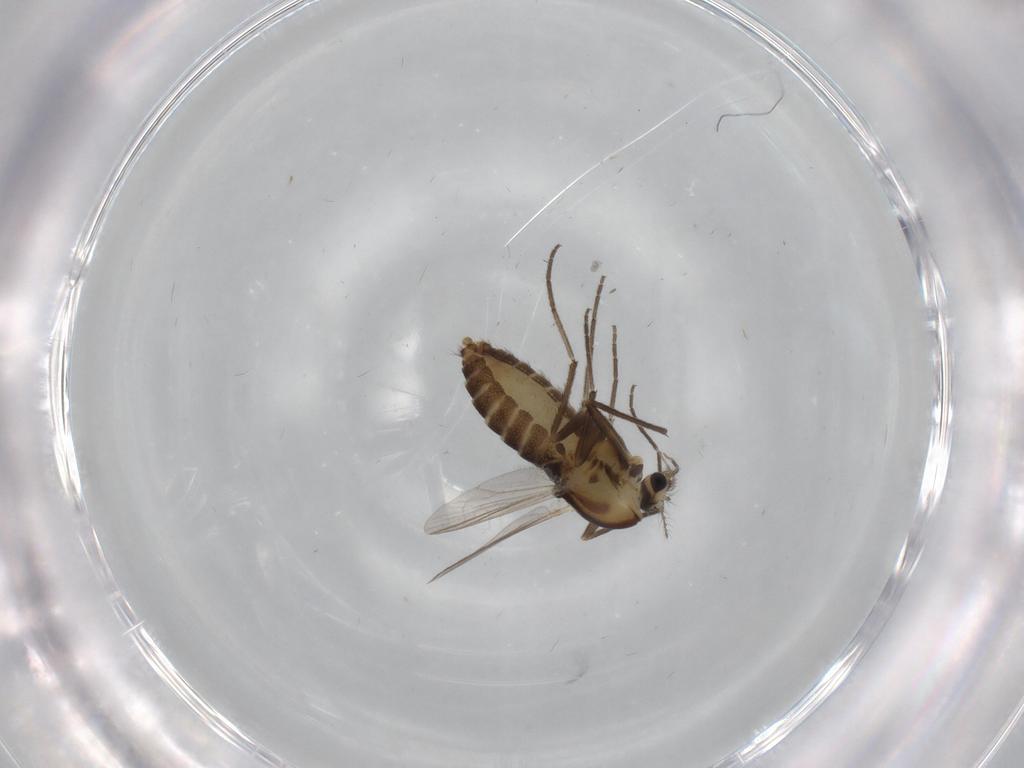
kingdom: Animalia
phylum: Arthropoda
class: Insecta
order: Diptera
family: Chironomidae
